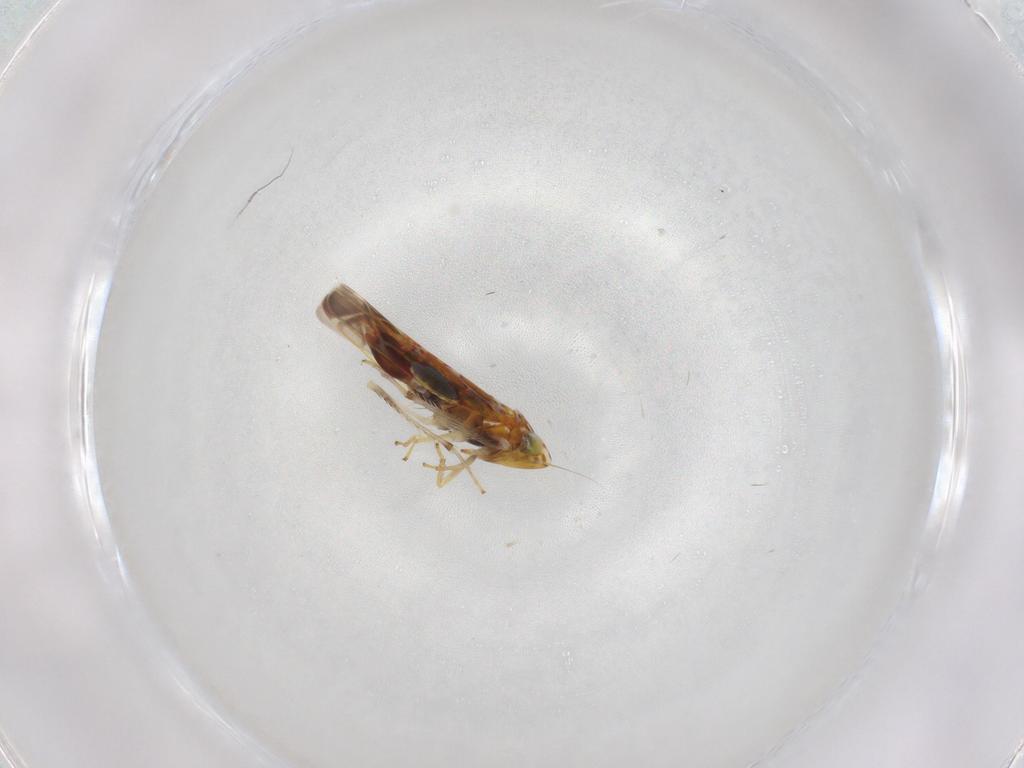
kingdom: Animalia
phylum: Arthropoda
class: Insecta
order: Hemiptera
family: Cicadellidae
